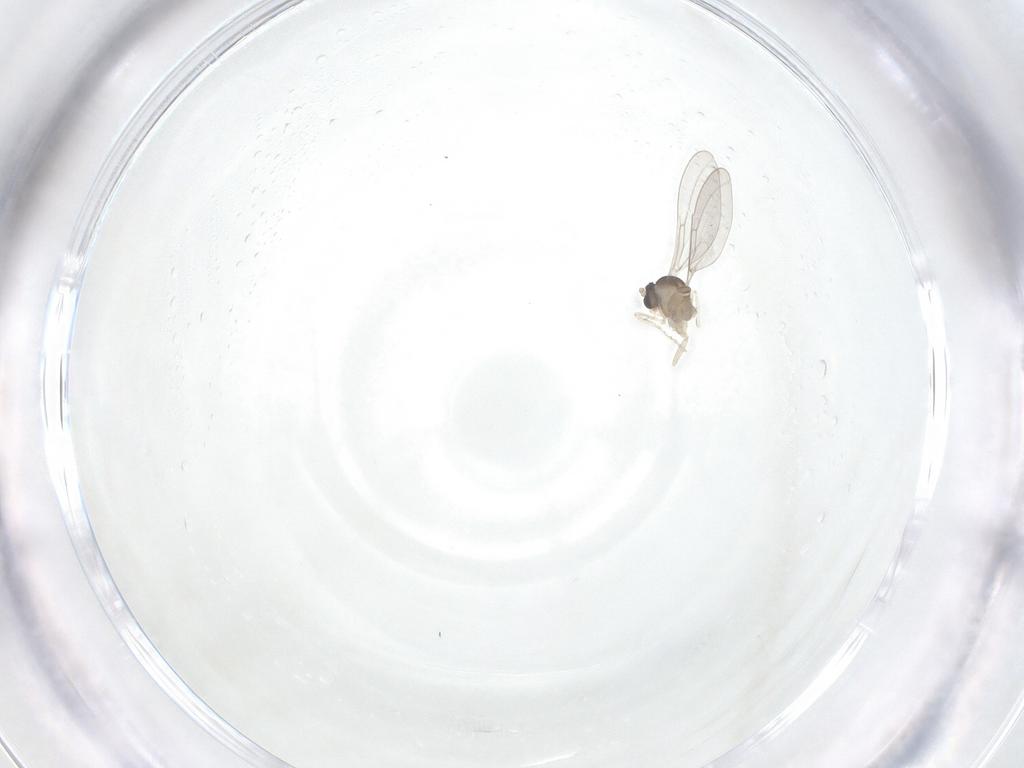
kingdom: Animalia
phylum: Arthropoda
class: Insecta
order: Diptera
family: Cecidomyiidae
